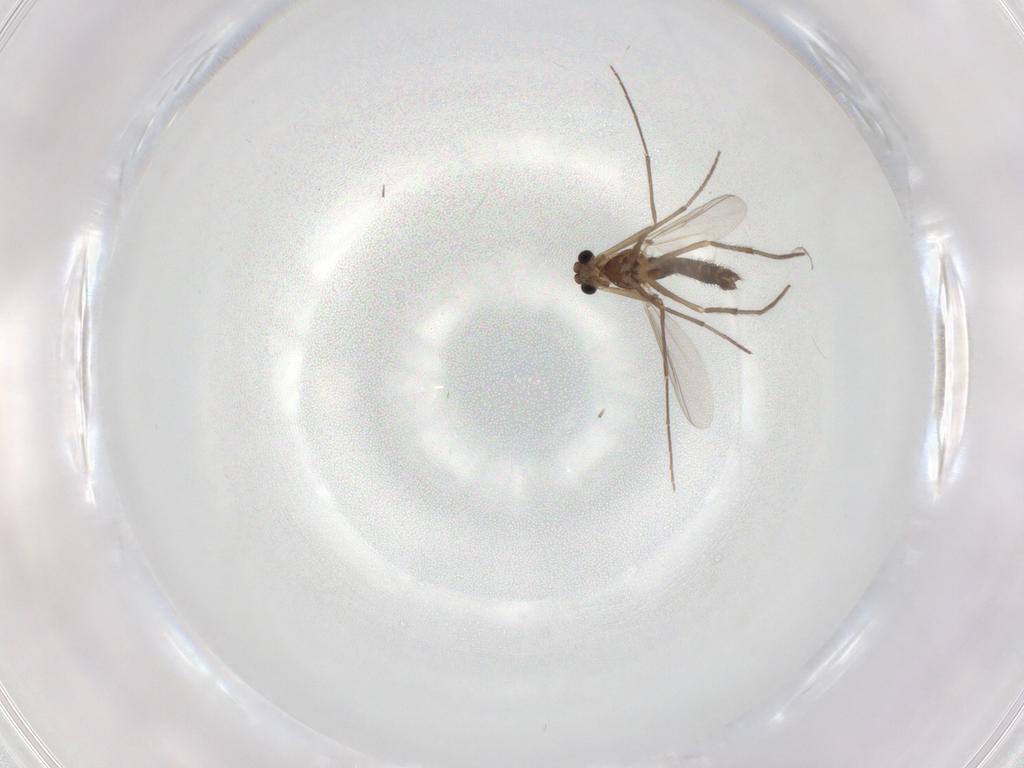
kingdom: Animalia
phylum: Arthropoda
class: Insecta
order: Diptera
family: Chironomidae
